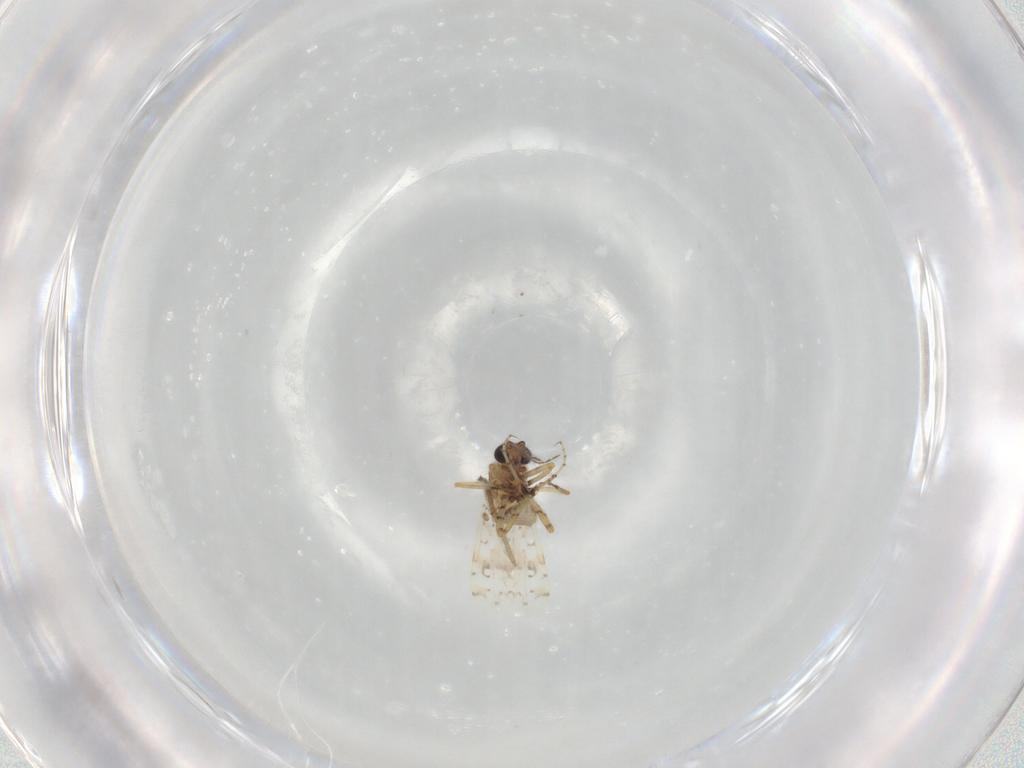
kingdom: Animalia
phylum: Arthropoda
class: Insecta
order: Diptera
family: Ceratopogonidae
